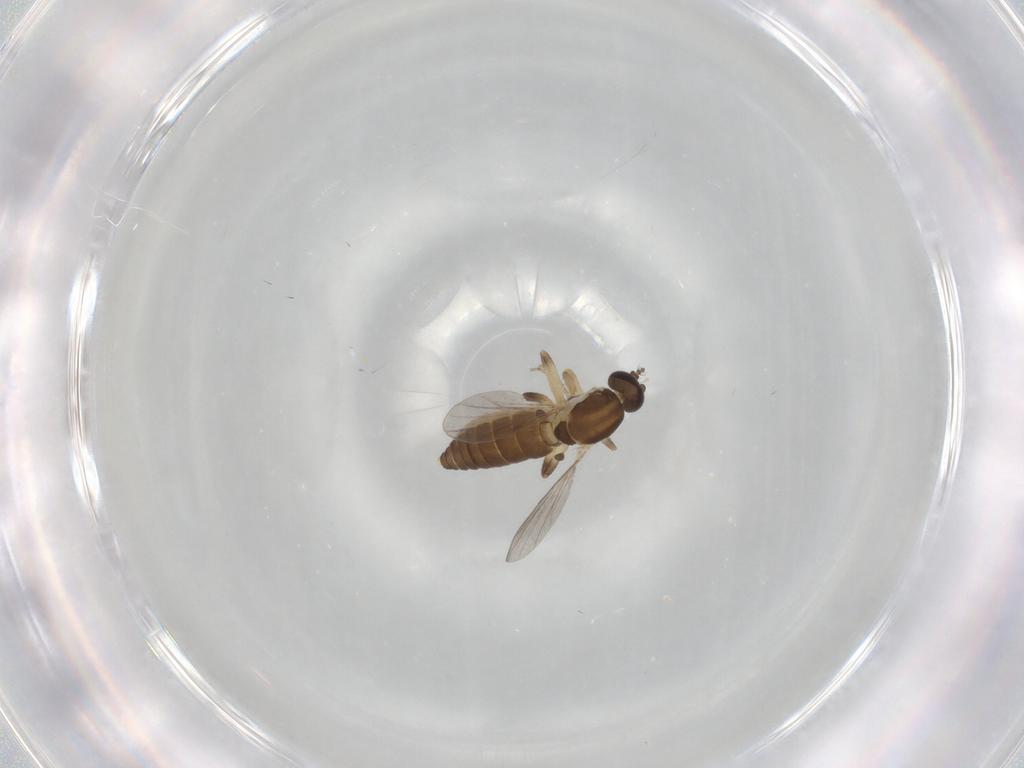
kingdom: Animalia
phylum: Arthropoda
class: Insecta
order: Diptera
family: Ceratopogonidae
